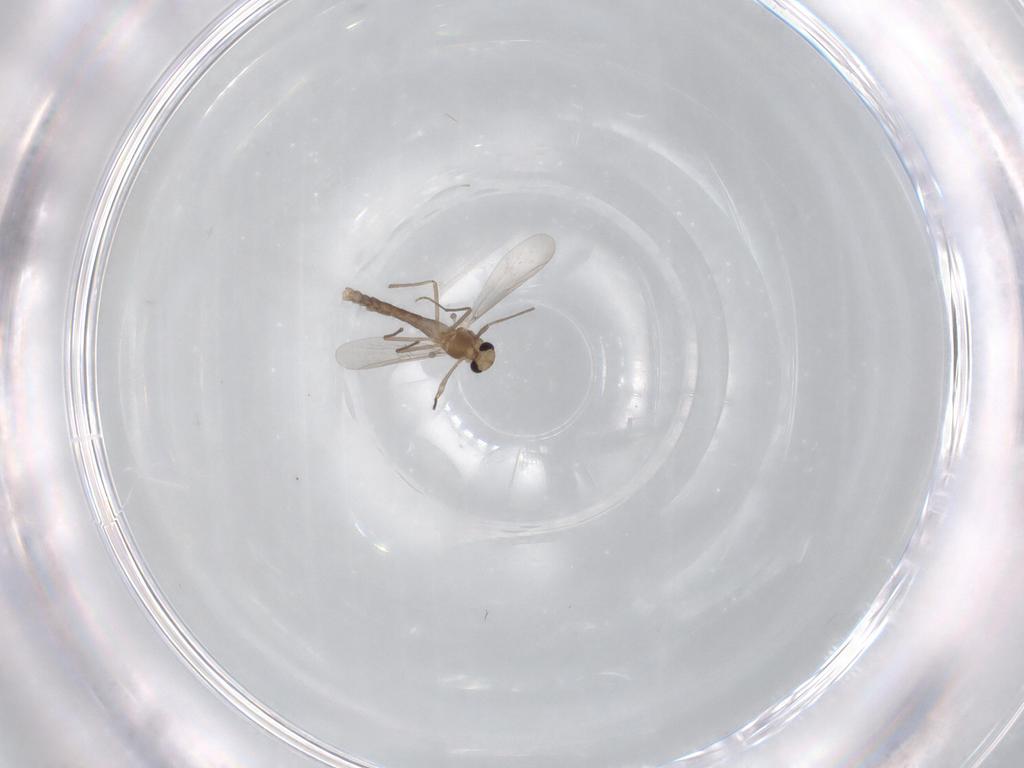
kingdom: Animalia
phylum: Arthropoda
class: Insecta
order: Diptera
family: Chironomidae
